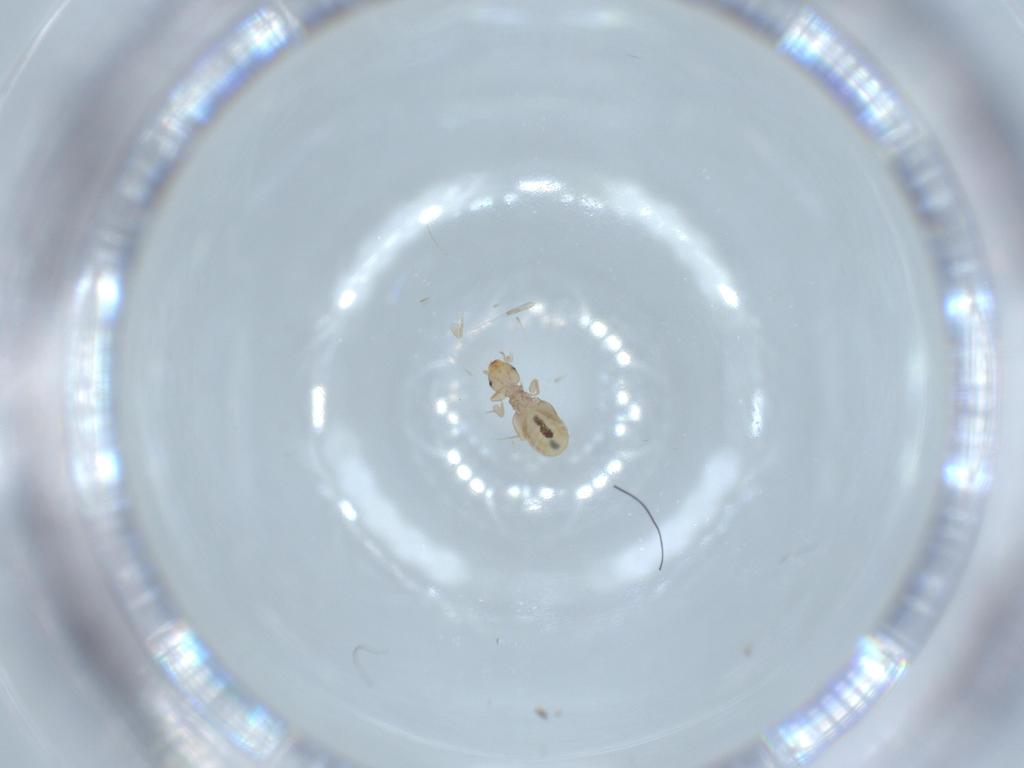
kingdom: Animalia
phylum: Arthropoda
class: Insecta
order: Psocodea
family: Liposcelididae
